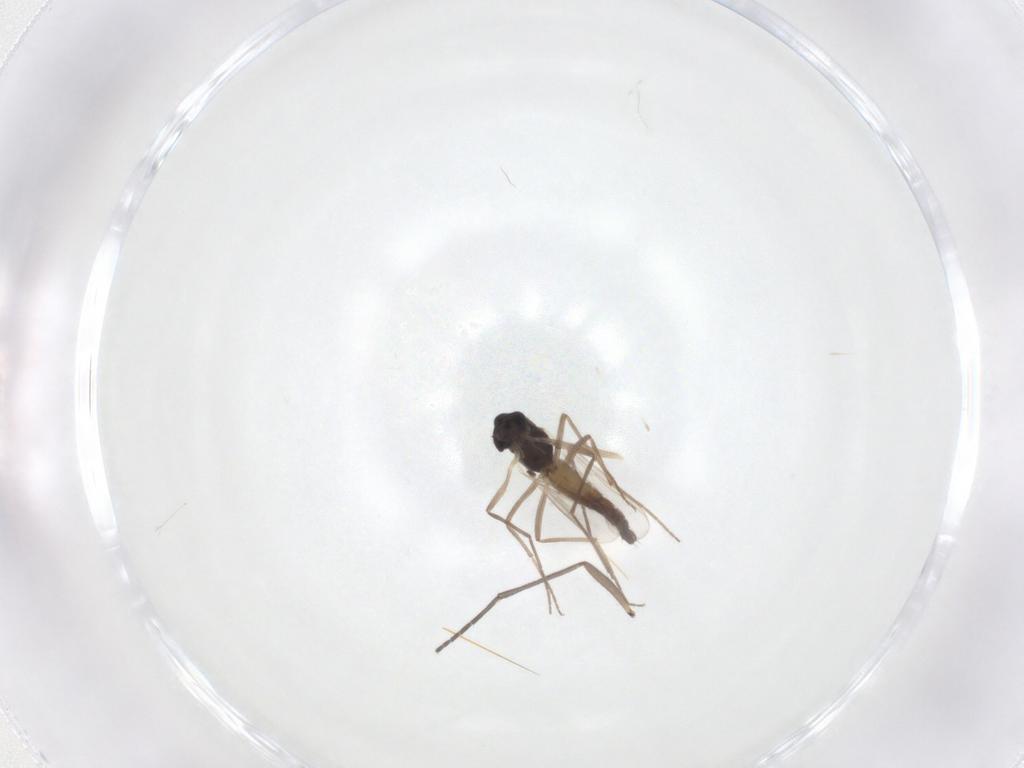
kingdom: Animalia
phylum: Arthropoda
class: Insecta
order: Diptera
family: Chironomidae
